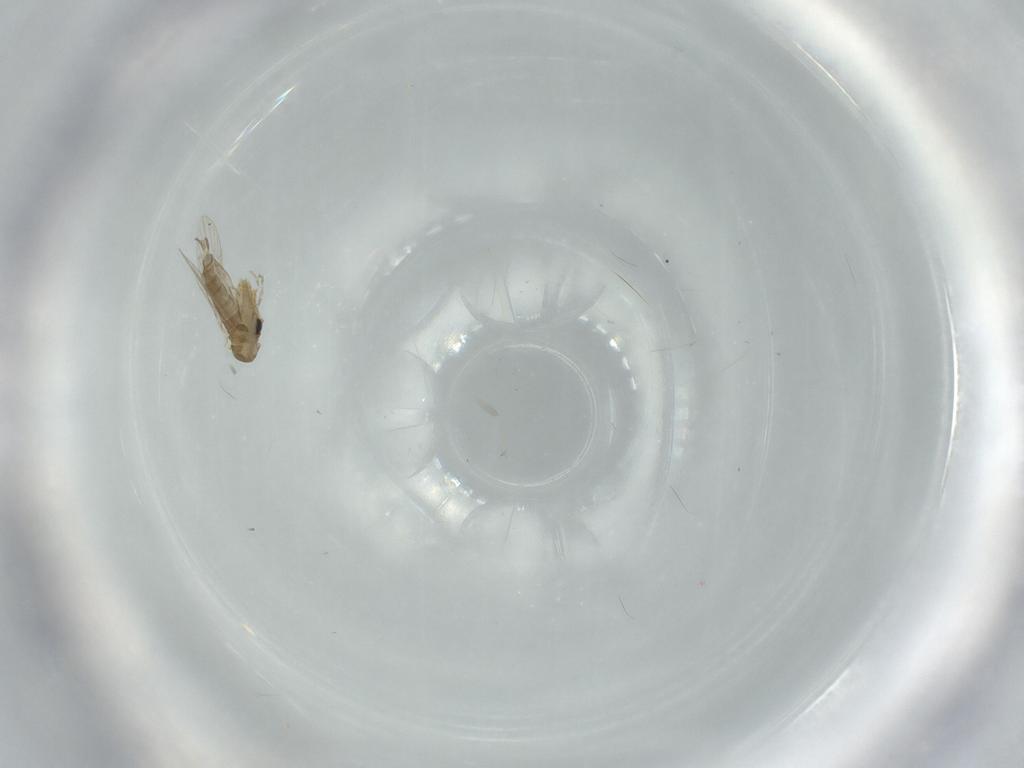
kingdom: Animalia
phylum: Arthropoda
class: Insecta
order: Diptera
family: Psychodidae
